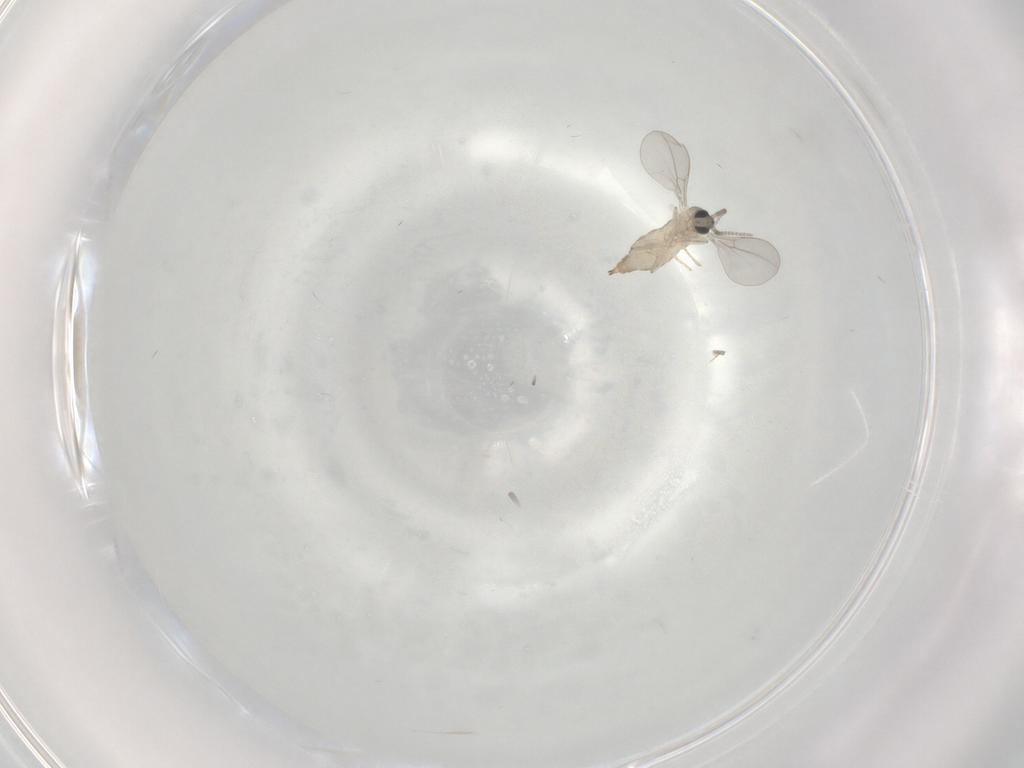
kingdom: Animalia
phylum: Arthropoda
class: Insecta
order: Diptera
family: Cecidomyiidae
